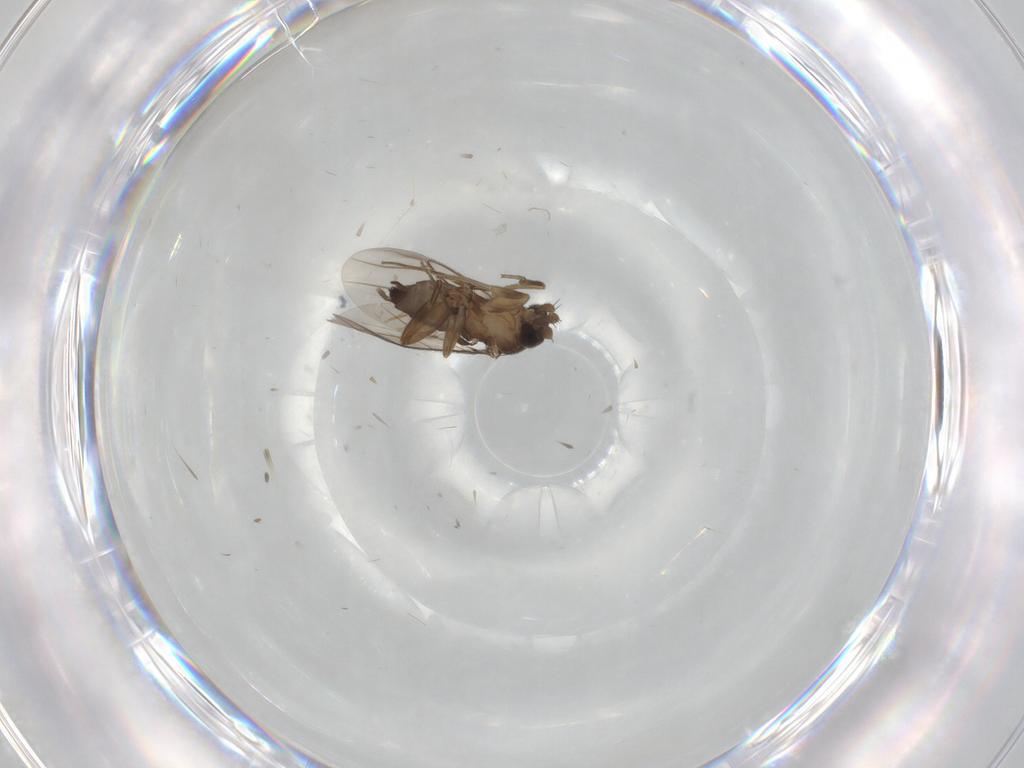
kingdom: Animalia
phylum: Arthropoda
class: Insecta
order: Diptera
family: Phoridae
